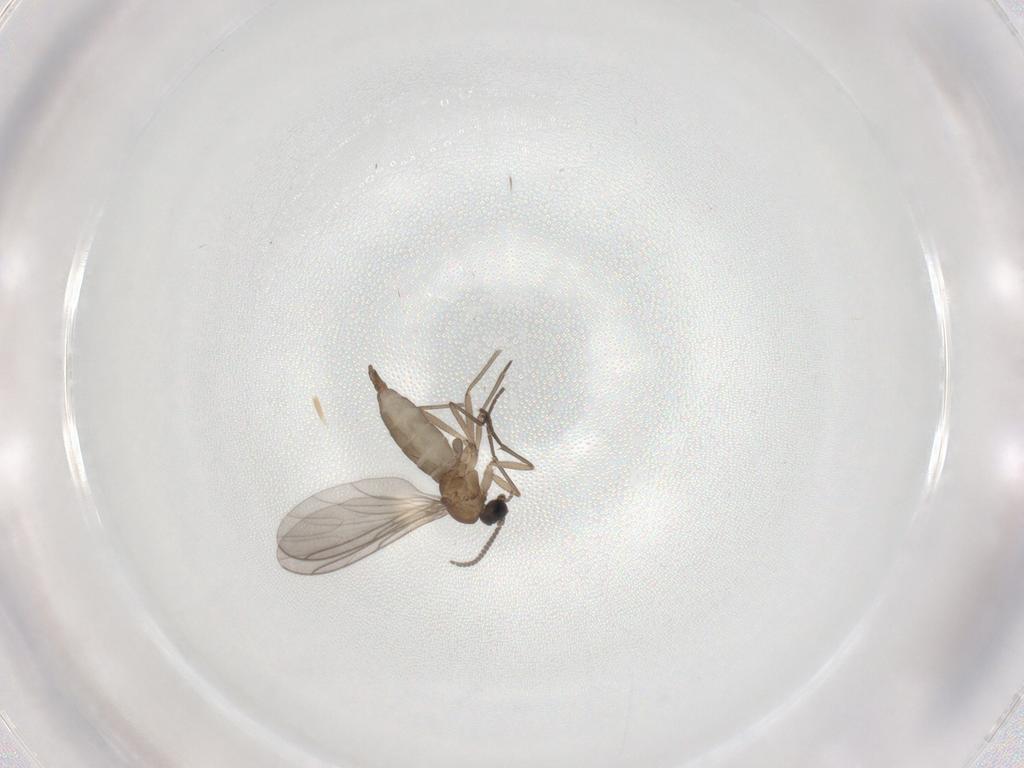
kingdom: Animalia
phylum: Arthropoda
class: Insecta
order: Diptera
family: Sciaridae
